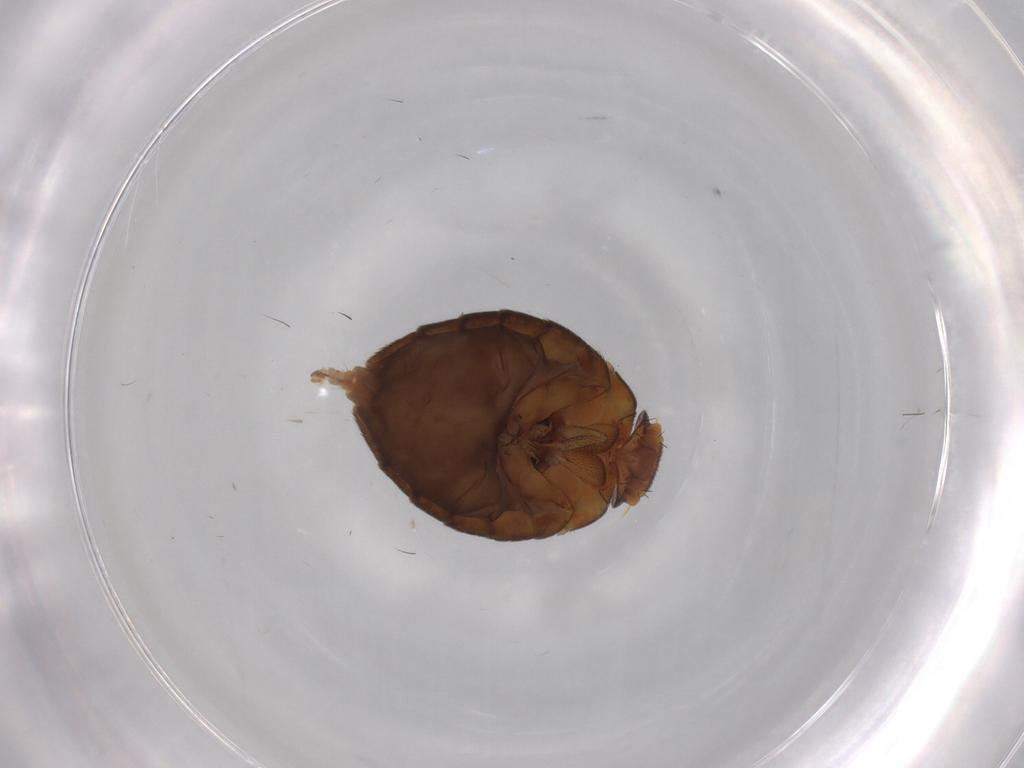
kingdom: Animalia
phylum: Arthropoda
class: Insecta
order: Diptera
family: Phoridae
